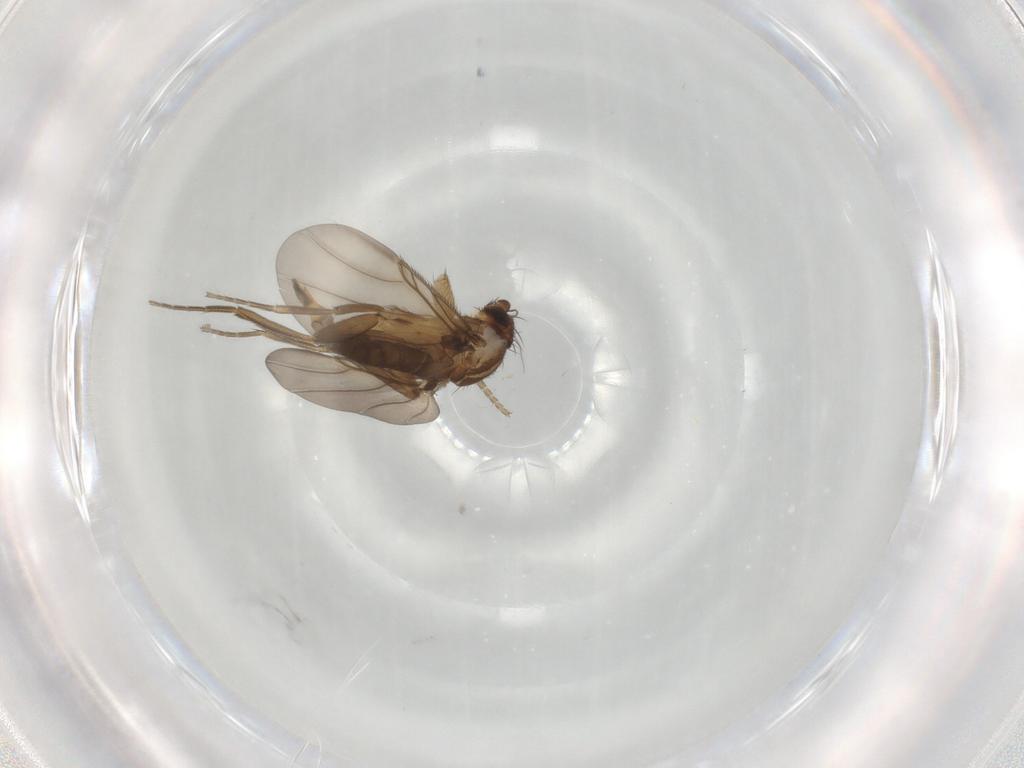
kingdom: Animalia
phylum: Arthropoda
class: Insecta
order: Diptera
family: Phoridae
